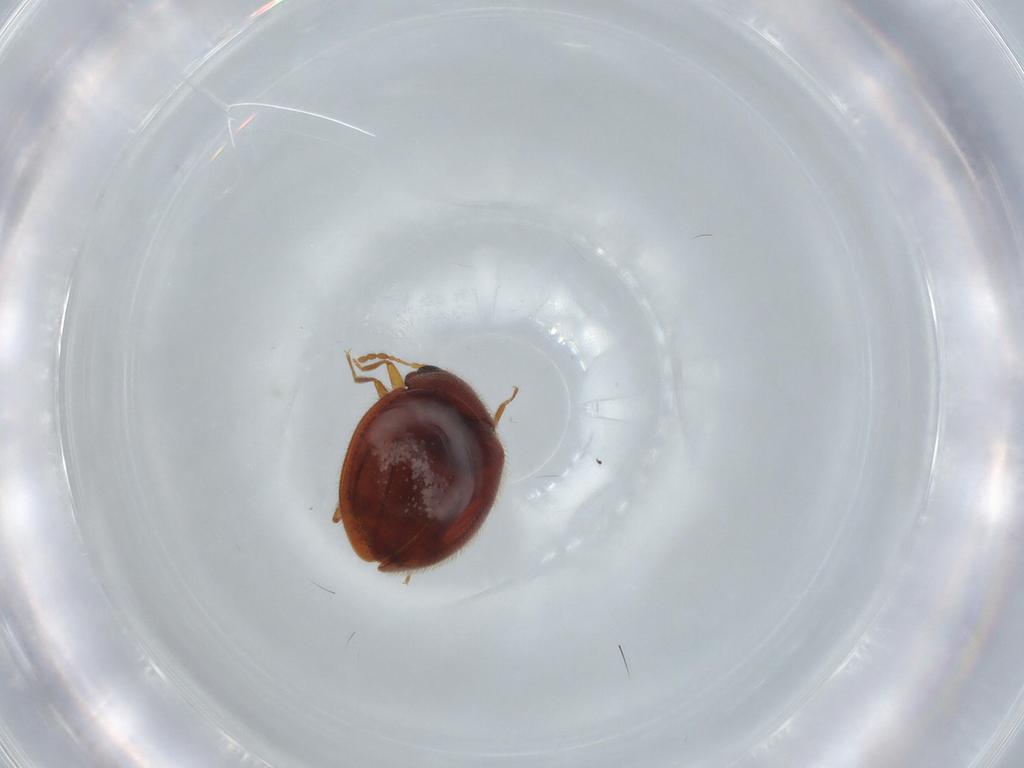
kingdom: Animalia
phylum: Arthropoda
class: Insecta
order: Coleoptera
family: Anamorphidae
